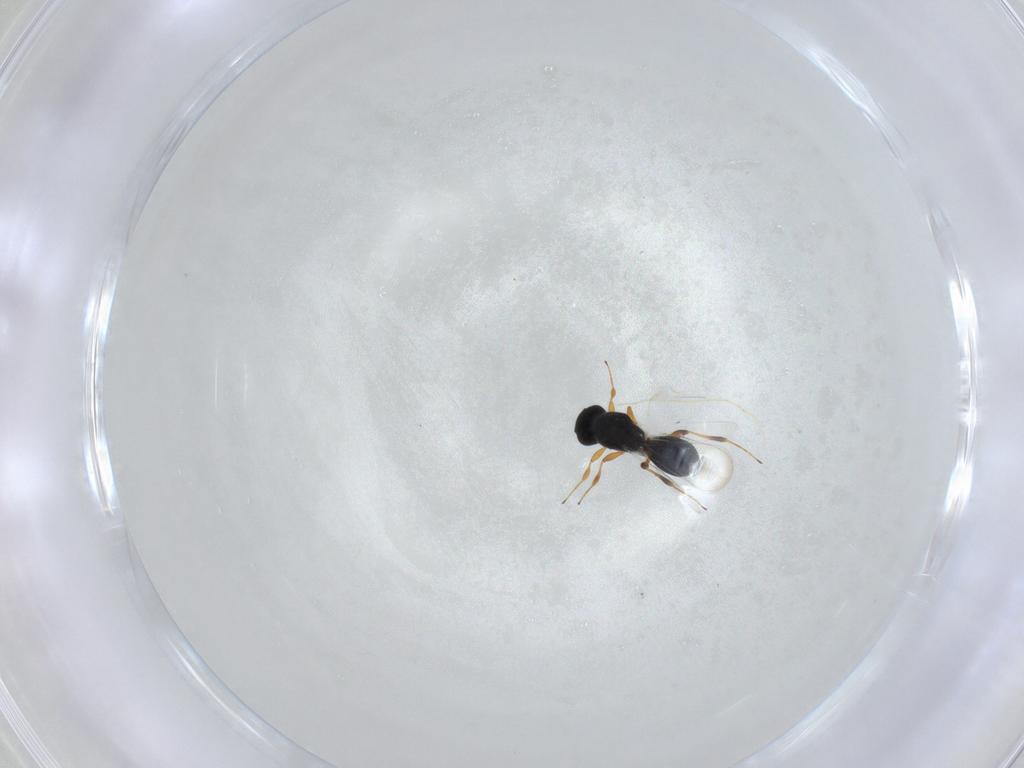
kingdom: Animalia
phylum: Arthropoda
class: Insecta
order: Hymenoptera
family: Platygastridae
